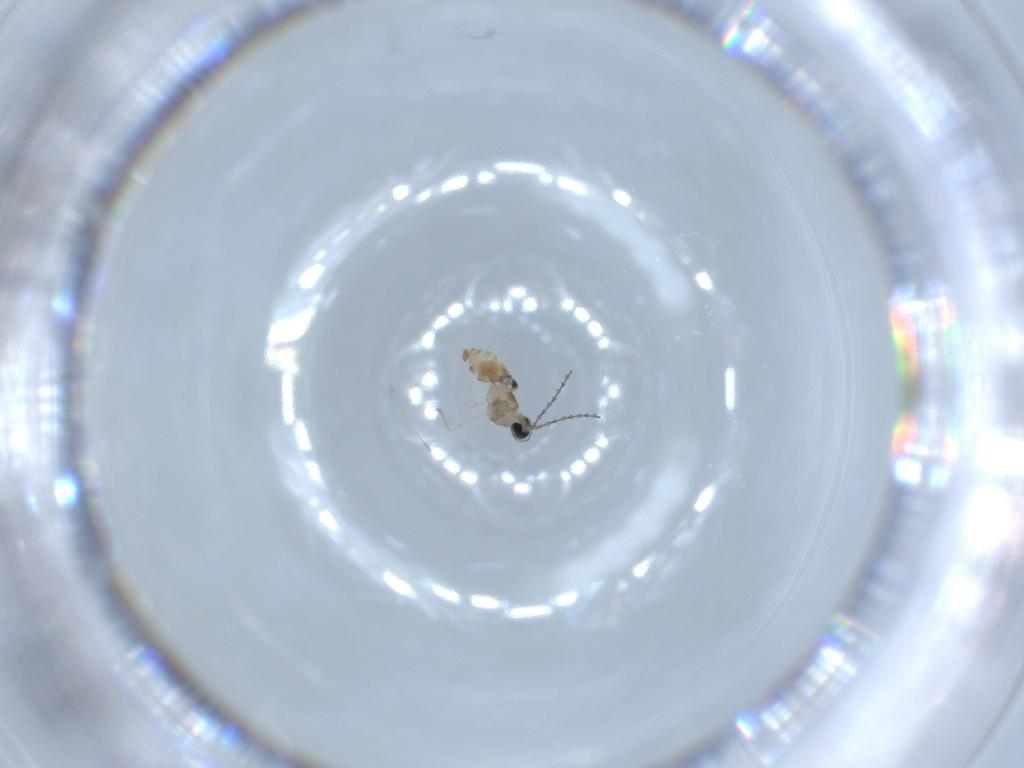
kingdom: Animalia
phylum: Arthropoda
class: Insecta
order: Diptera
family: Cecidomyiidae
